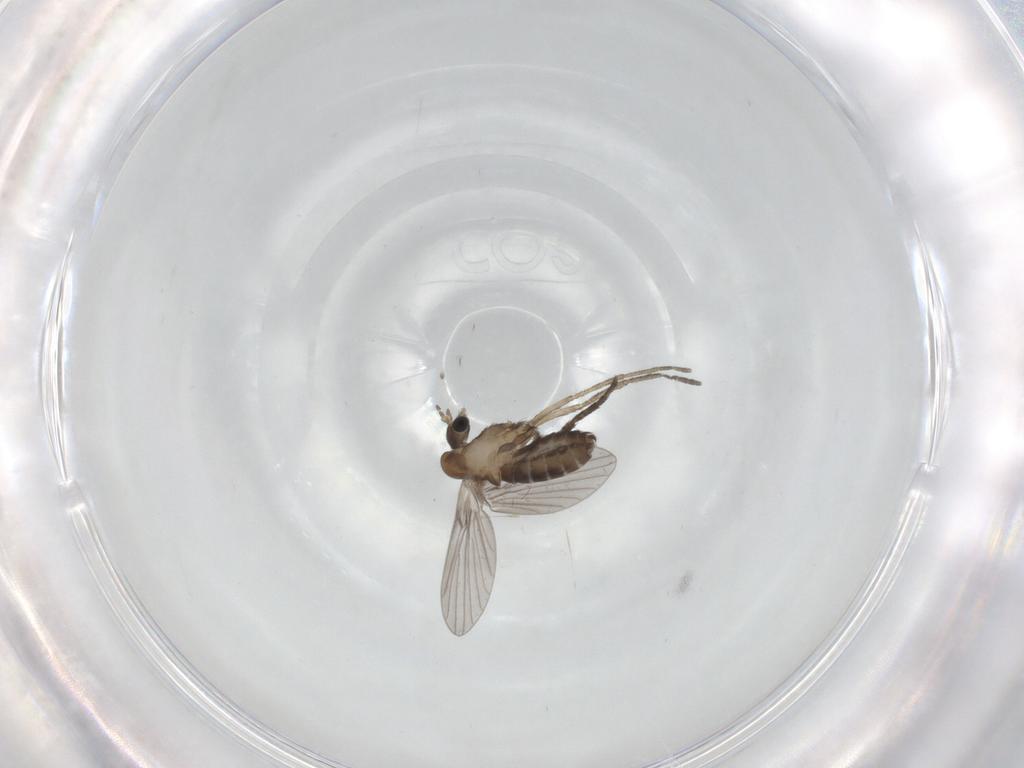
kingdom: Animalia
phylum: Arthropoda
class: Insecta
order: Diptera
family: Psychodidae
